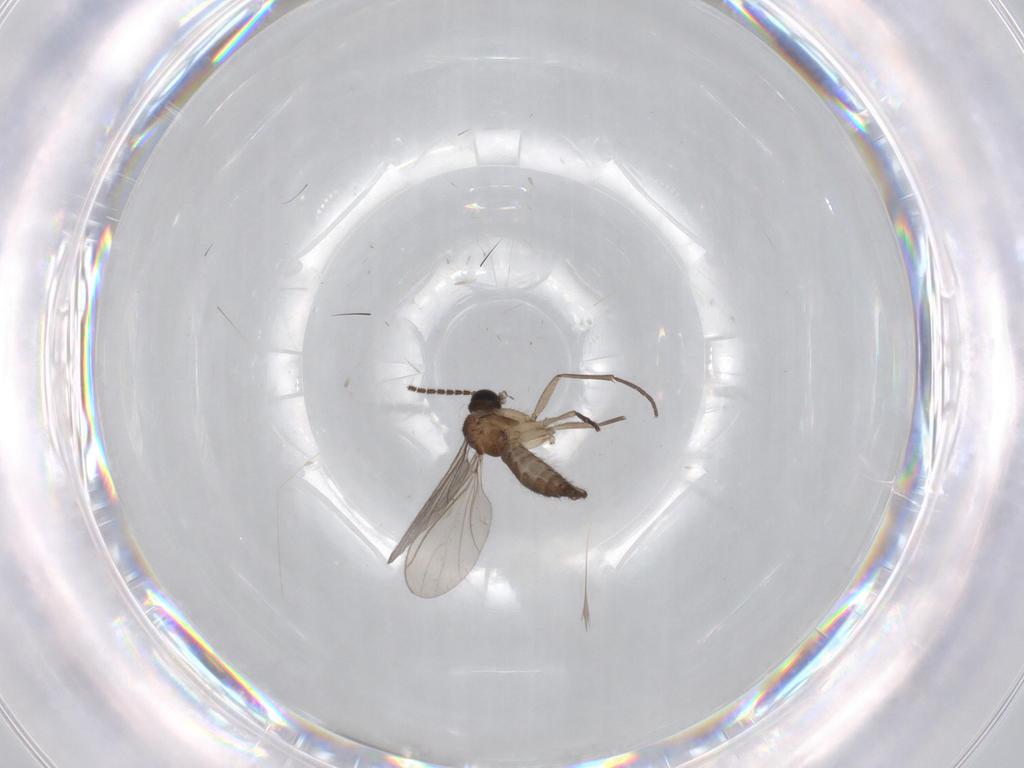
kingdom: Animalia
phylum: Arthropoda
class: Insecta
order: Diptera
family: Sciaridae
